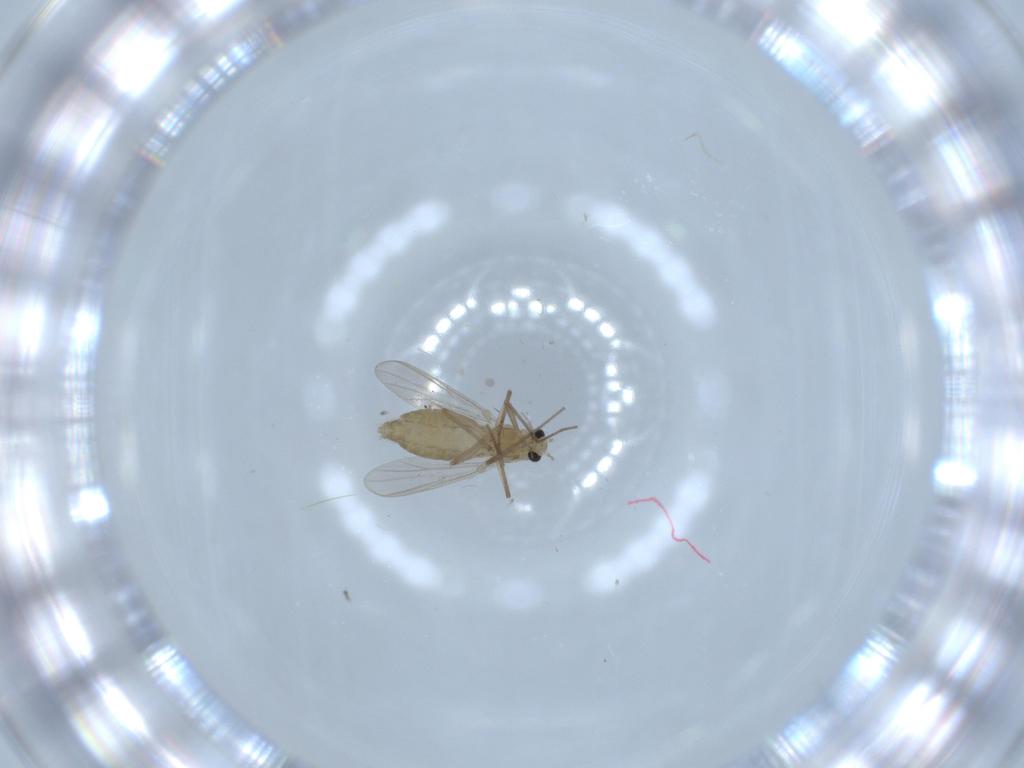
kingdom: Animalia
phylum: Arthropoda
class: Insecta
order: Diptera
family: Chironomidae
